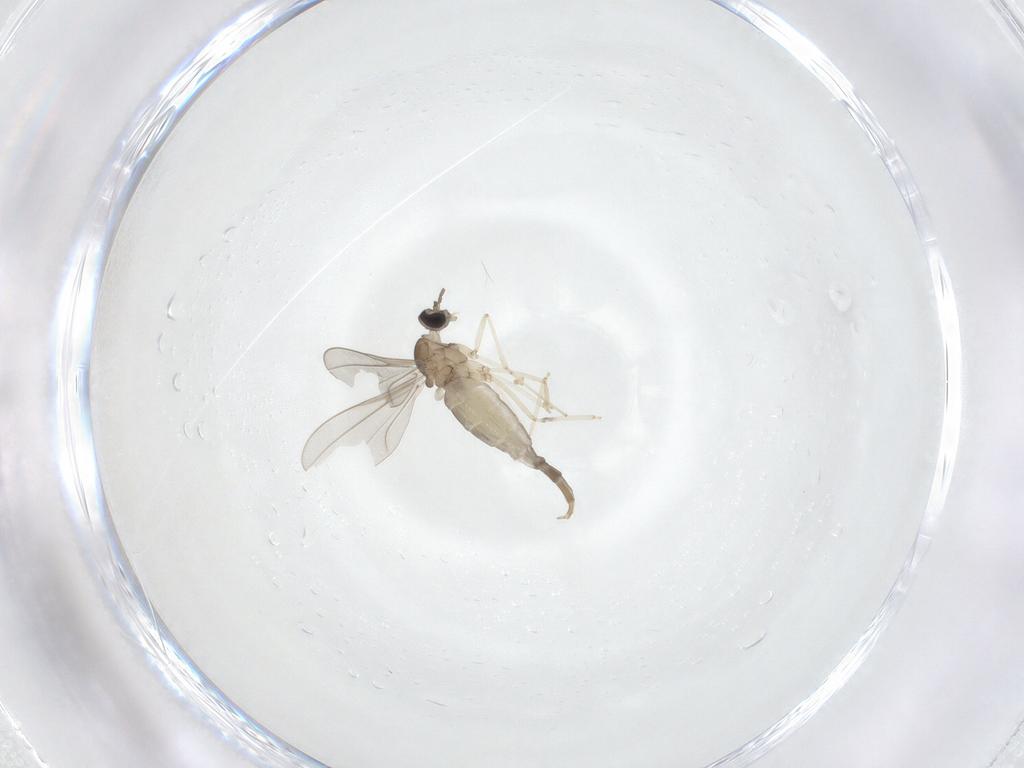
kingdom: Animalia
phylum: Arthropoda
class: Insecta
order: Diptera
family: Cecidomyiidae
